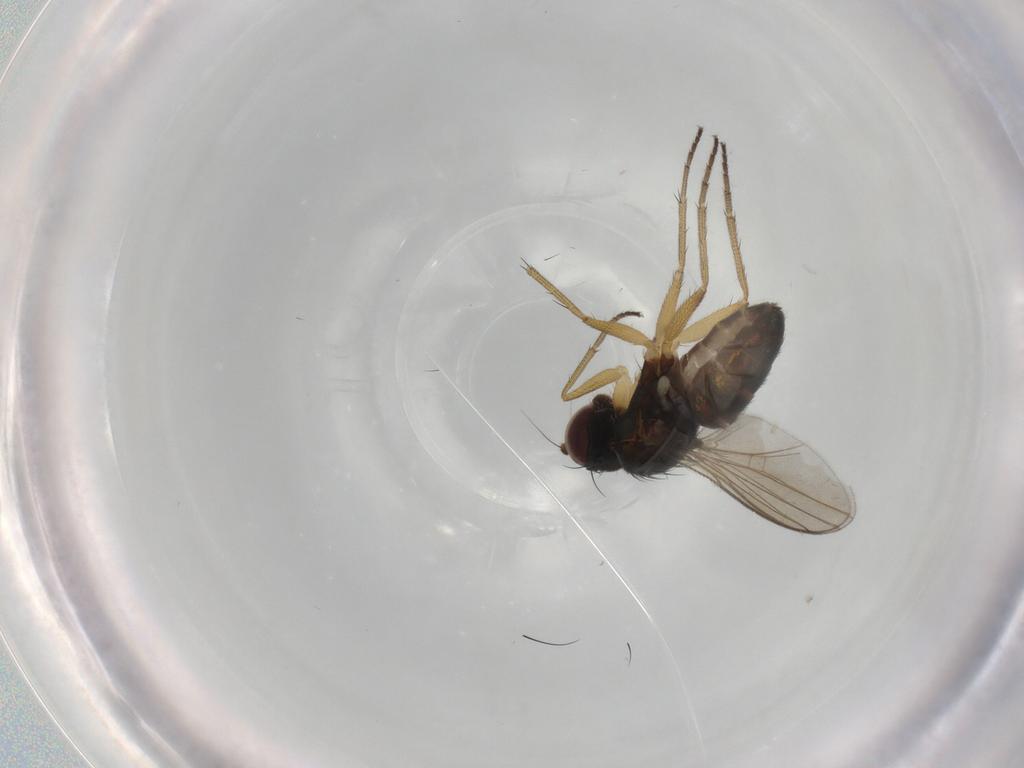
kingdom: Animalia
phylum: Arthropoda
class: Insecta
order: Diptera
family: Dolichopodidae
